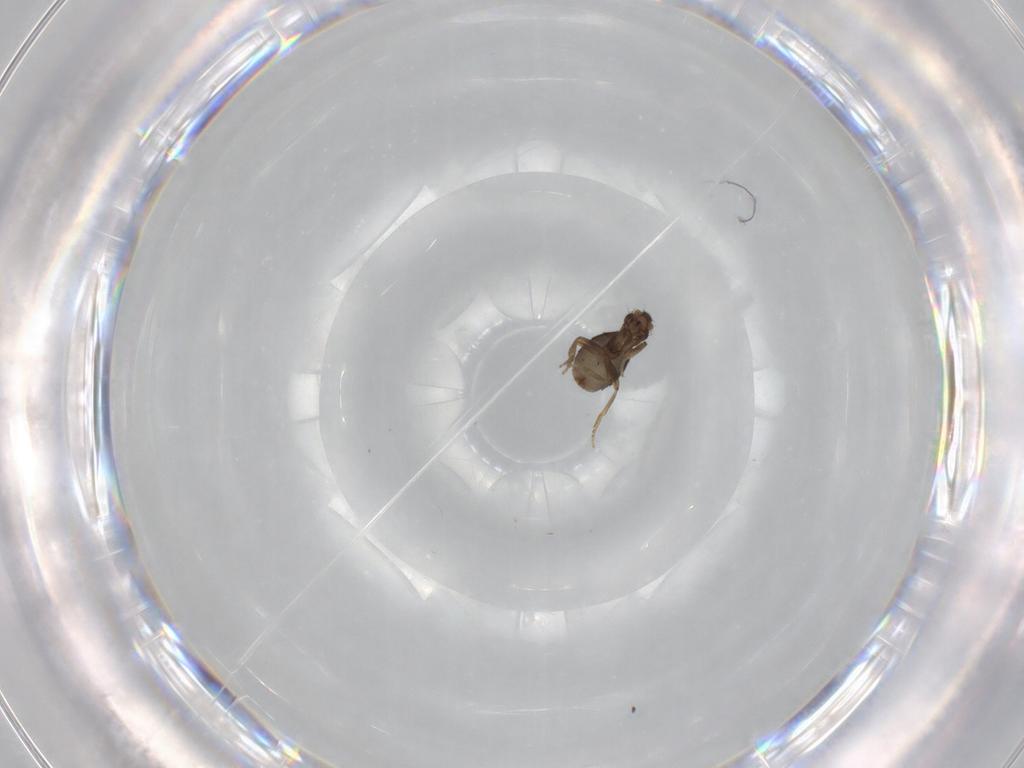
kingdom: Animalia
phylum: Arthropoda
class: Insecta
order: Diptera
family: Phoridae
